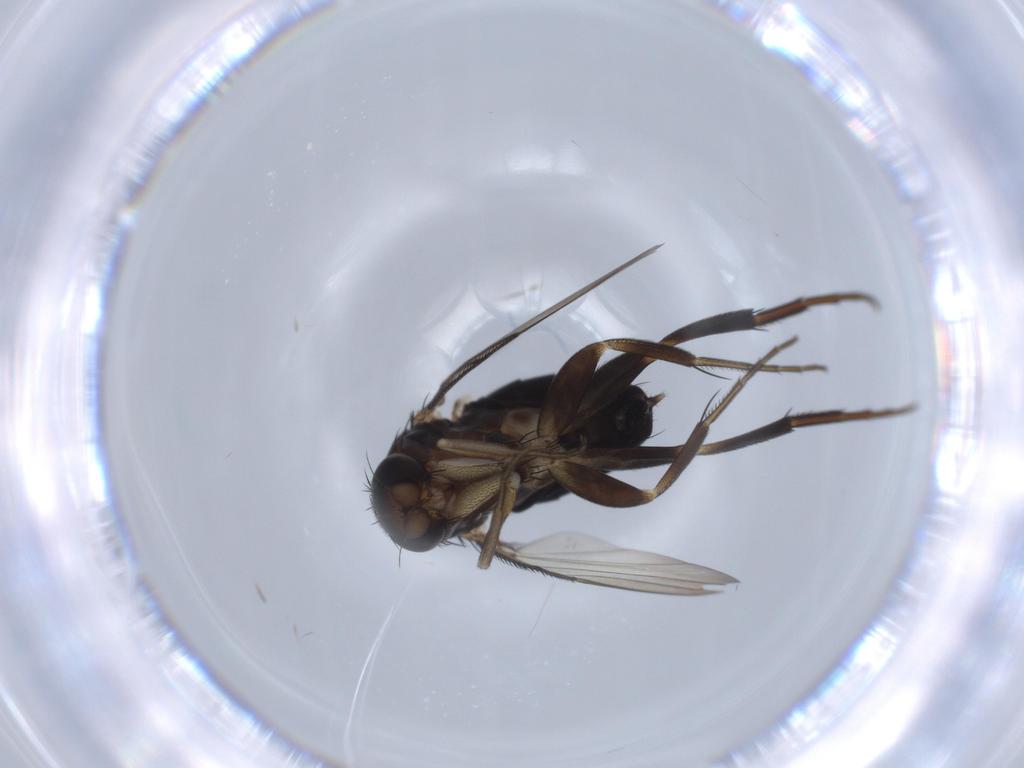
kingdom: Animalia
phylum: Arthropoda
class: Insecta
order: Diptera
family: Phoridae
